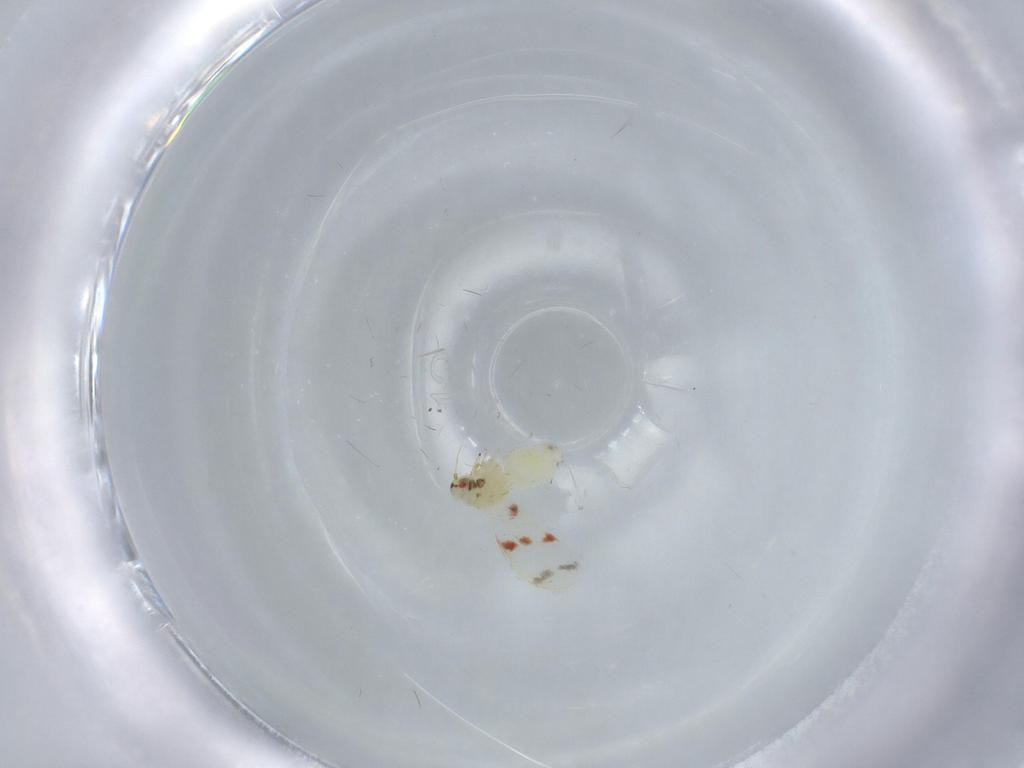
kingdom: Animalia
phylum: Arthropoda
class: Insecta
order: Hemiptera
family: Aleyrodidae
